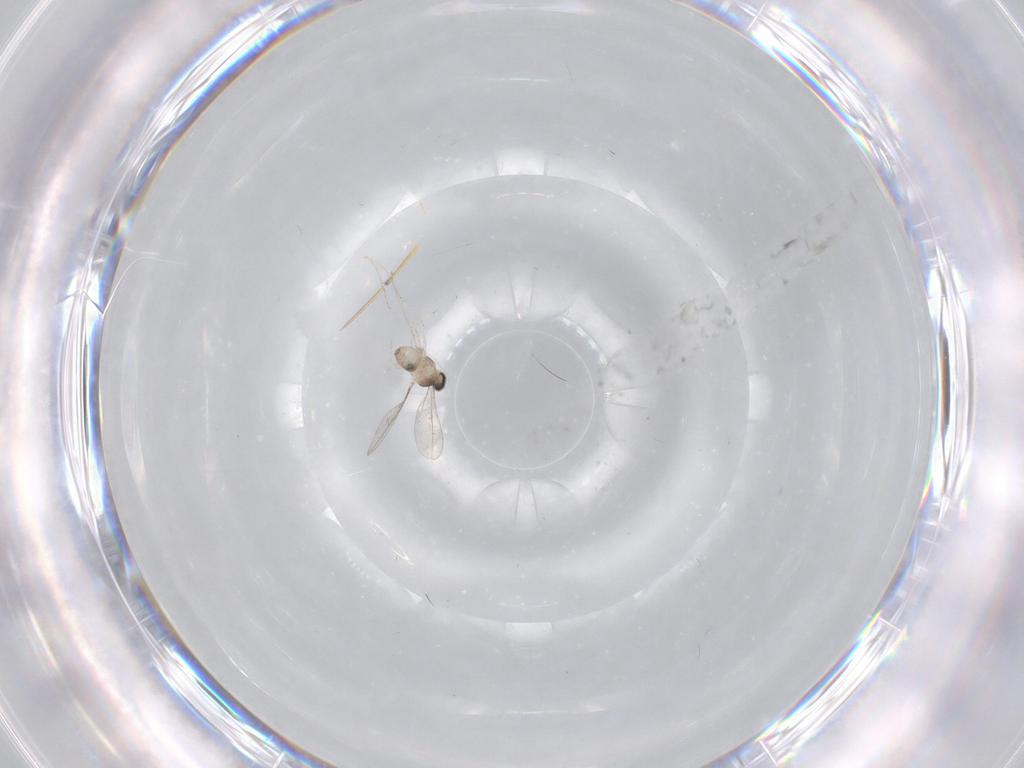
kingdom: Animalia
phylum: Arthropoda
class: Insecta
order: Diptera
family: Cecidomyiidae
